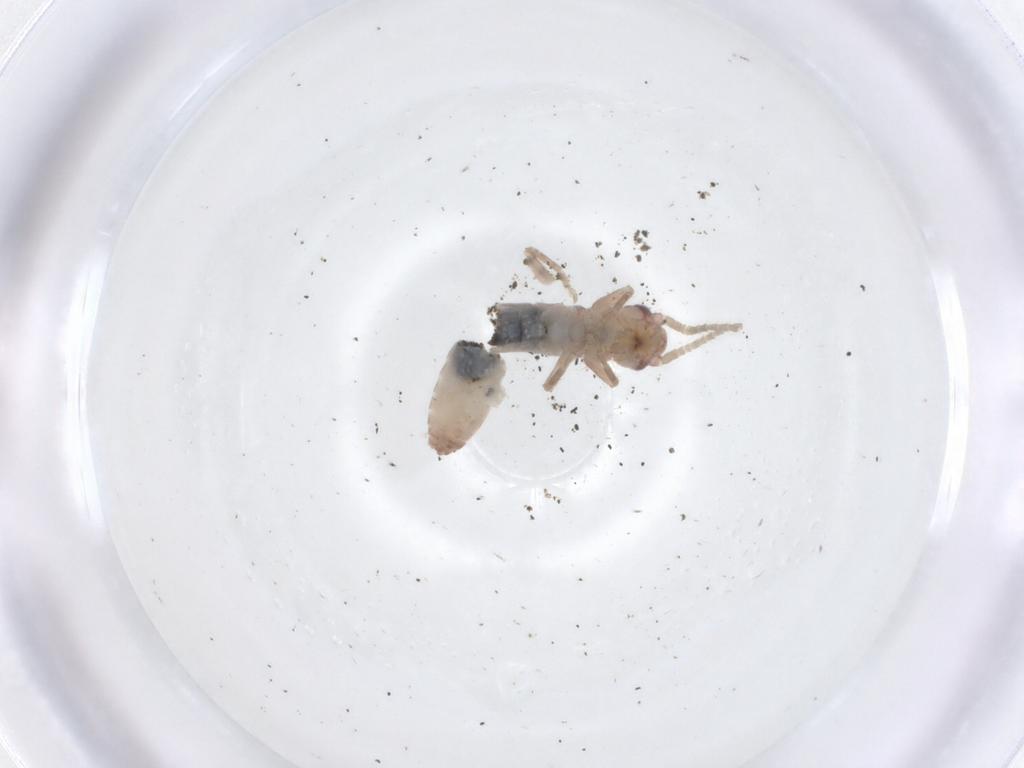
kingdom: Animalia
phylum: Arthropoda
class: Insecta
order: Orthoptera
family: Mogoplistidae
